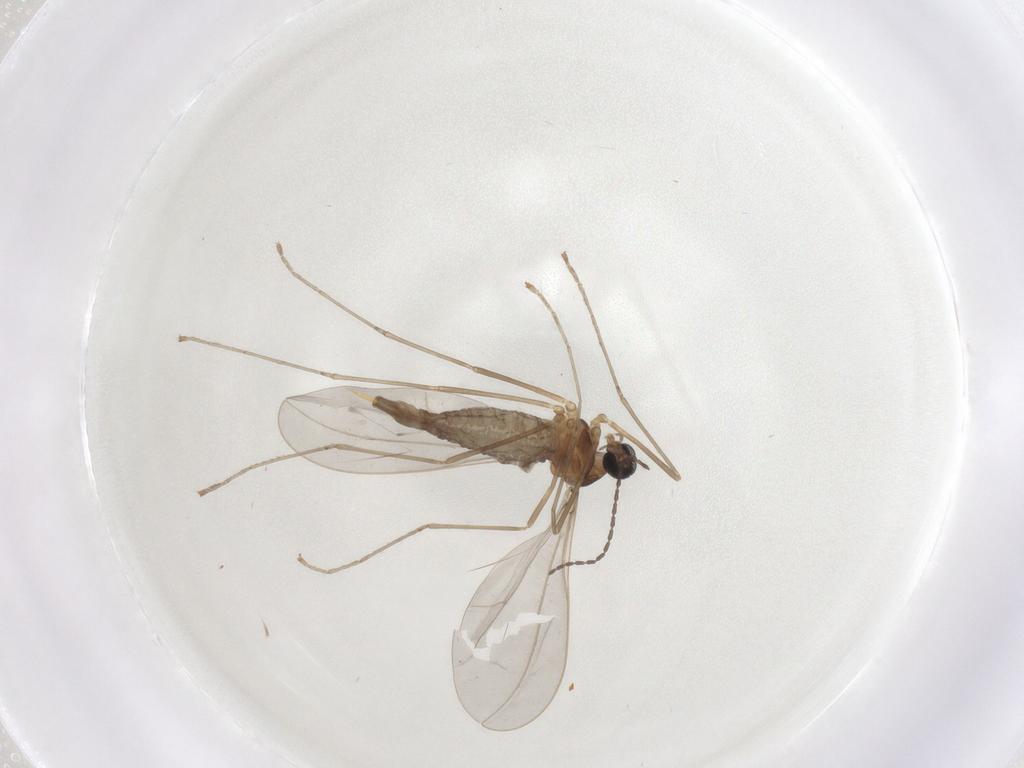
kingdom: Animalia
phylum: Arthropoda
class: Insecta
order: Diptera
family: Cecidomyiidae
